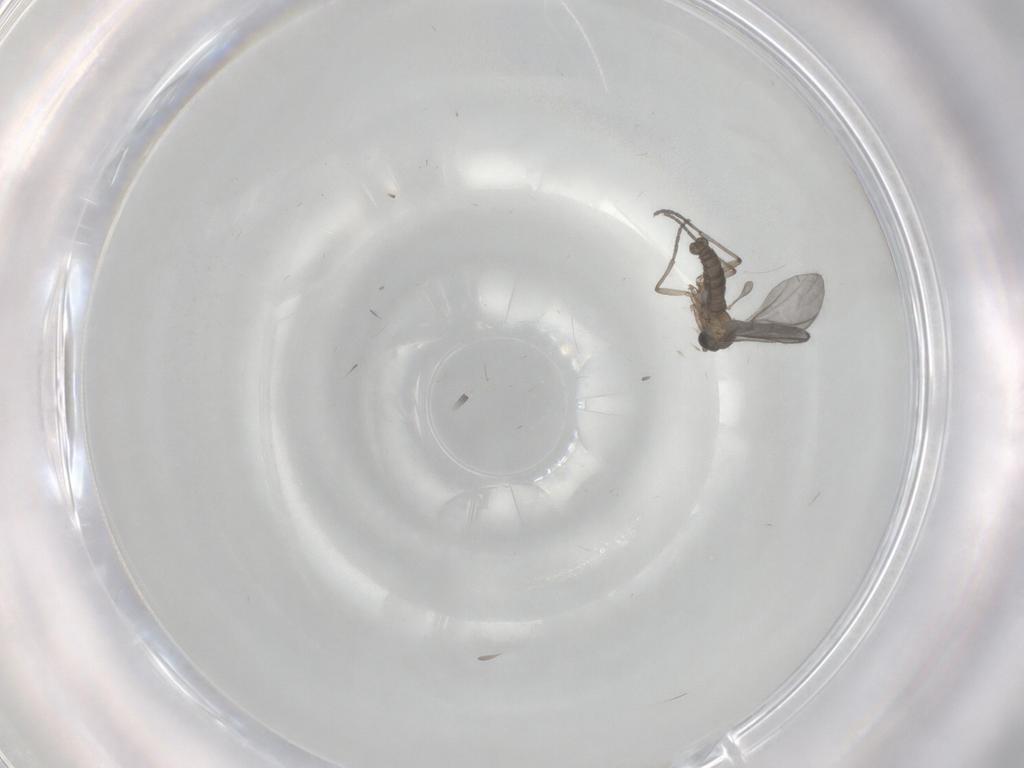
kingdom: Animalia
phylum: Arthropoda
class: Insecta
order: Diptera
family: Sciaridae
